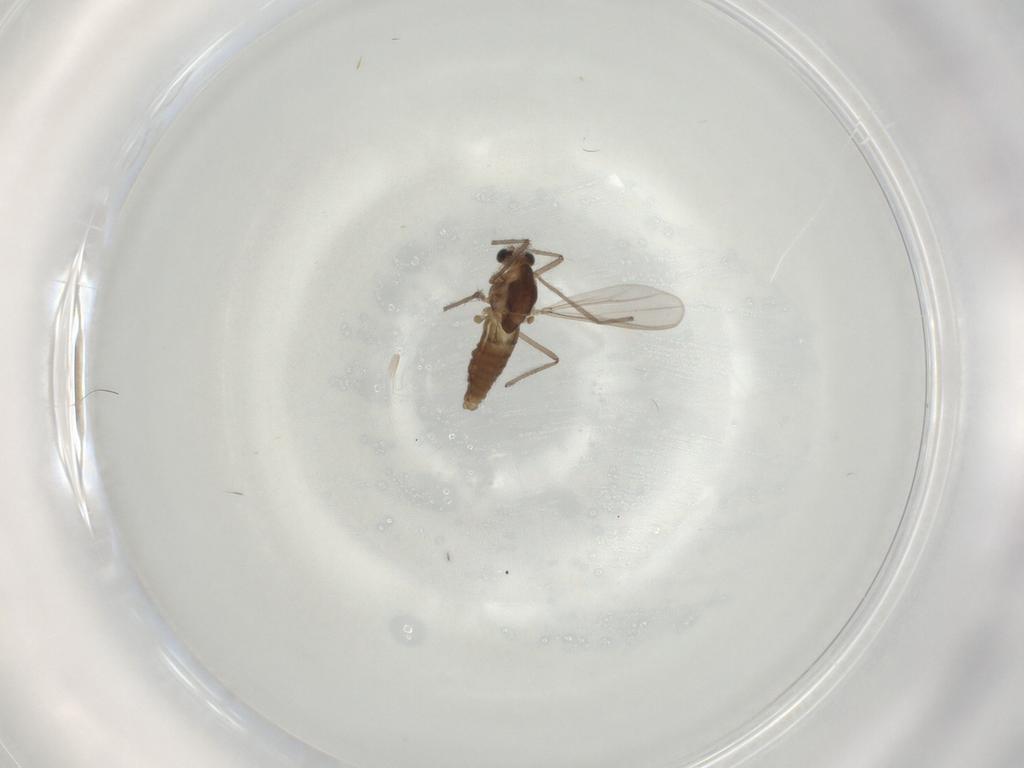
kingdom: Animalia
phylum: Arthropoda
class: Insecta
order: Diptera
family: Chironomidae
